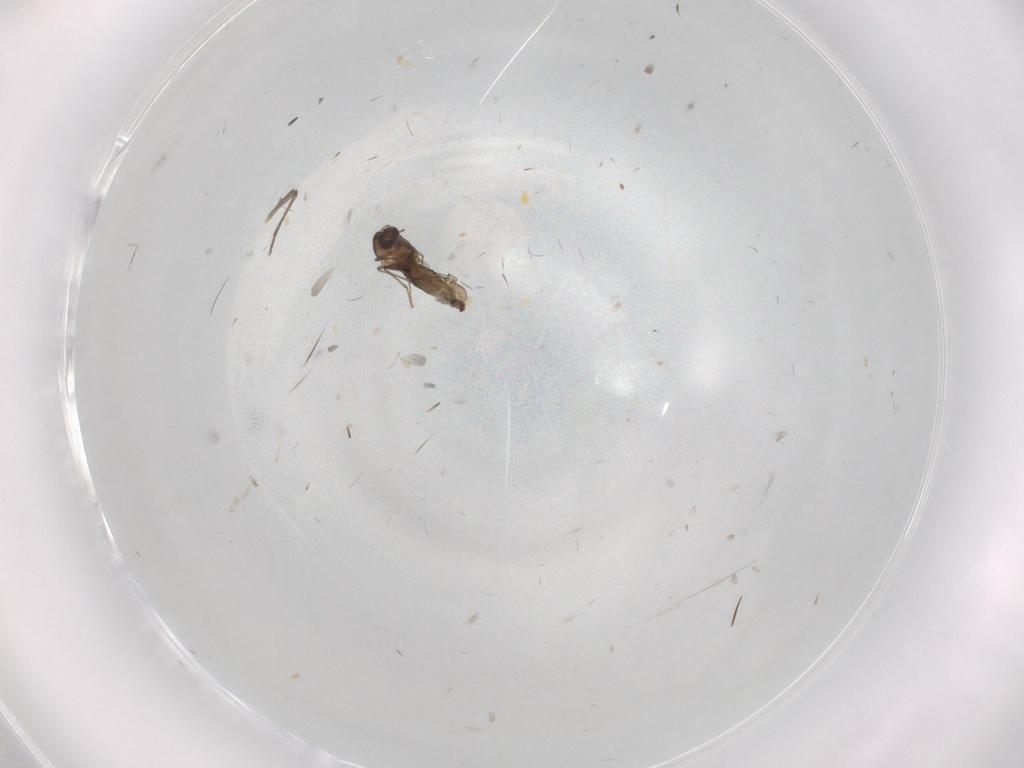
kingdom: Animalia
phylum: Arthropoda
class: Insecta
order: Diptera
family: Chironomidae
